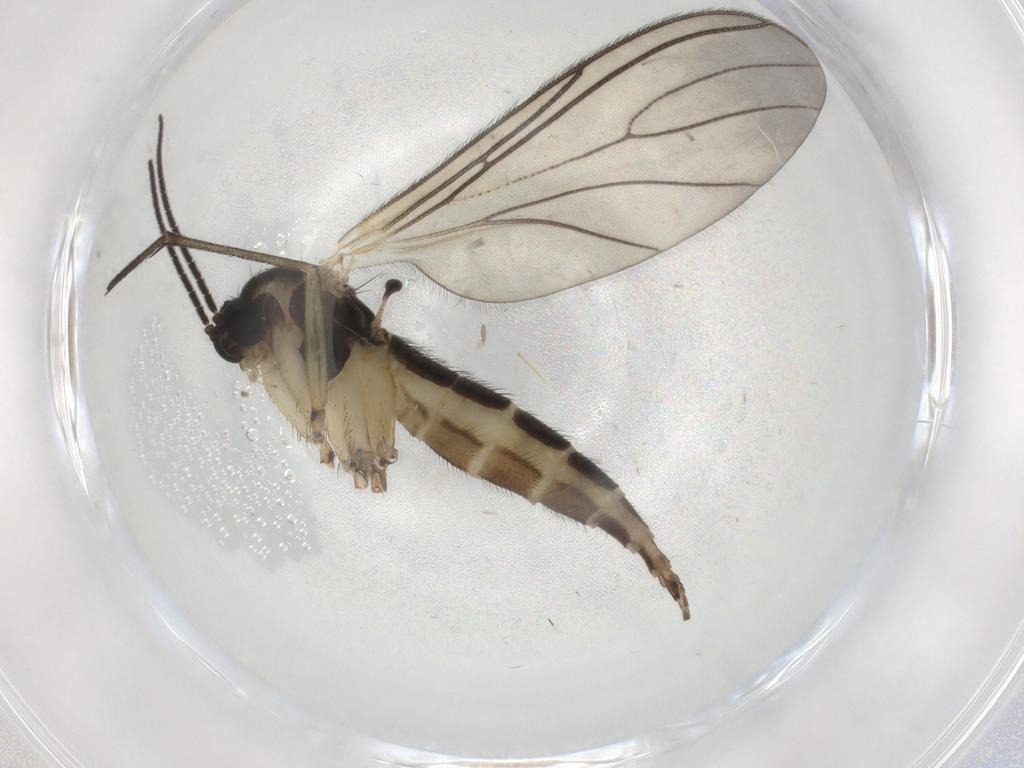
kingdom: Animalia
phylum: Arthropoda
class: Insecta
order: Diptera
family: Sciaridae
